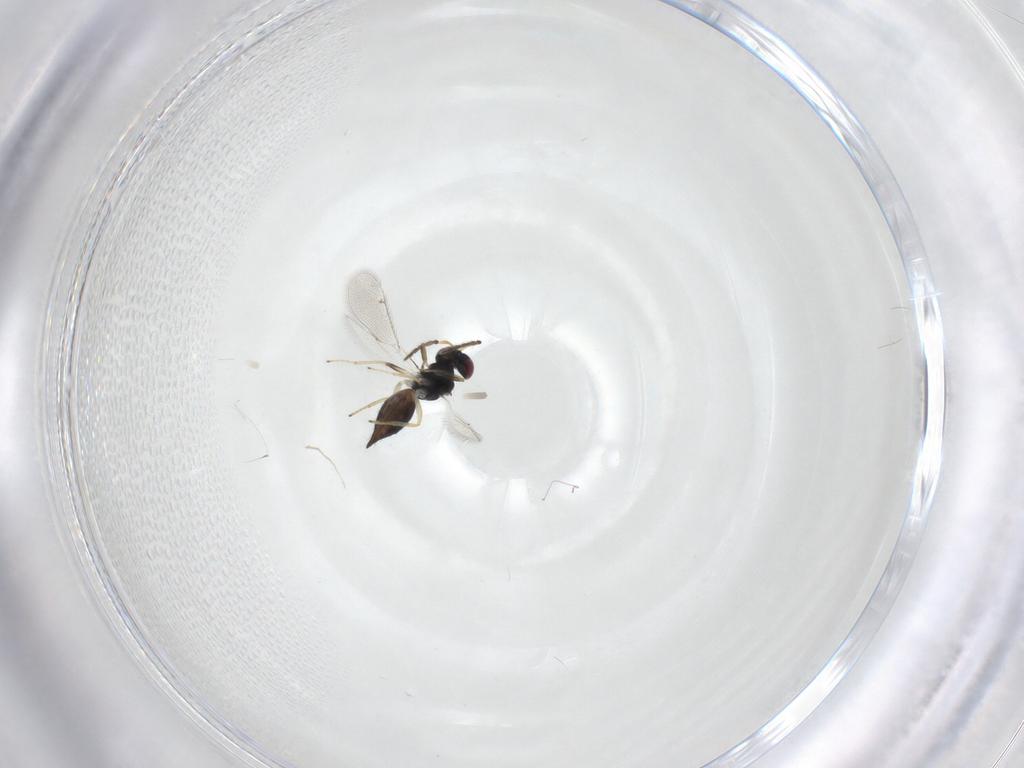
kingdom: Animalia
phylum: Arthropoda
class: Insecta
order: Hymenoptera
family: Eulophidae
